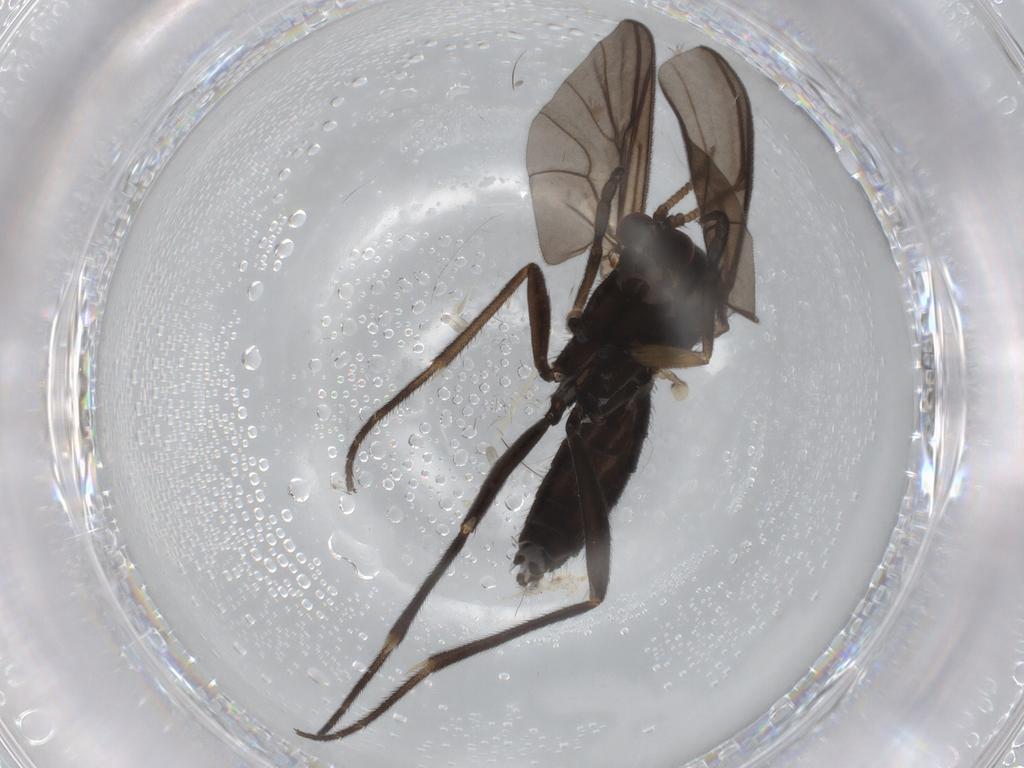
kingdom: Animalia
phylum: Arthropoda
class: Insecta
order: Diptera
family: Mycetophilidae
